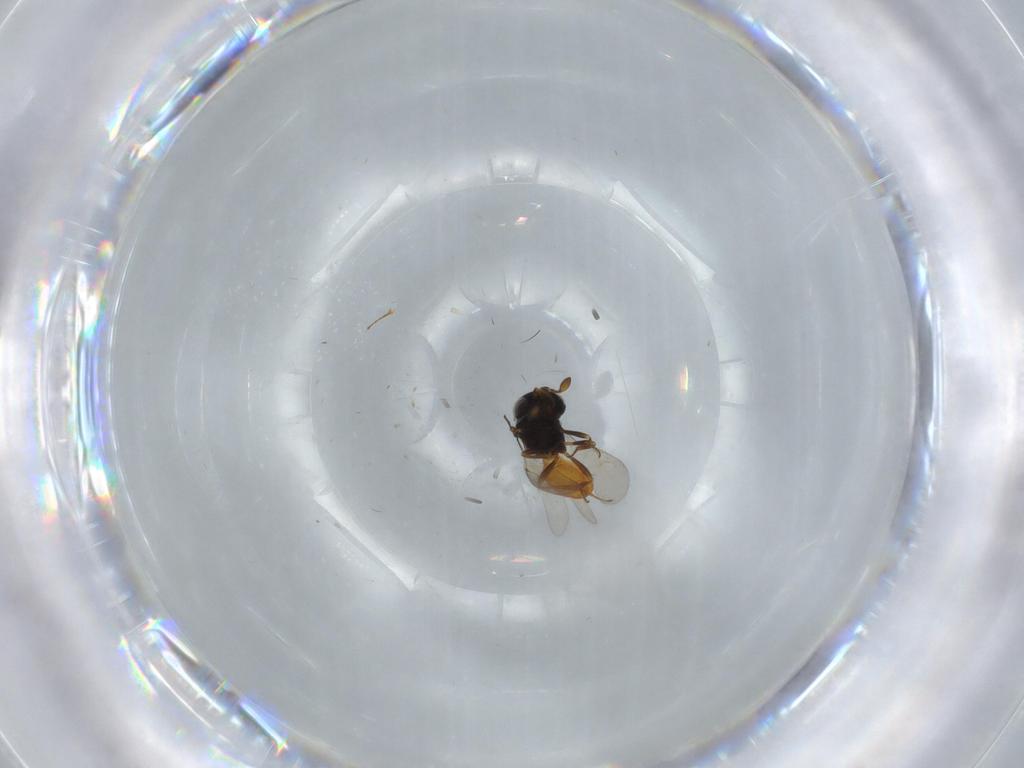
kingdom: Animalia
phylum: Arthropoda
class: Insecta
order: Hymenoptera
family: Scelionidae
